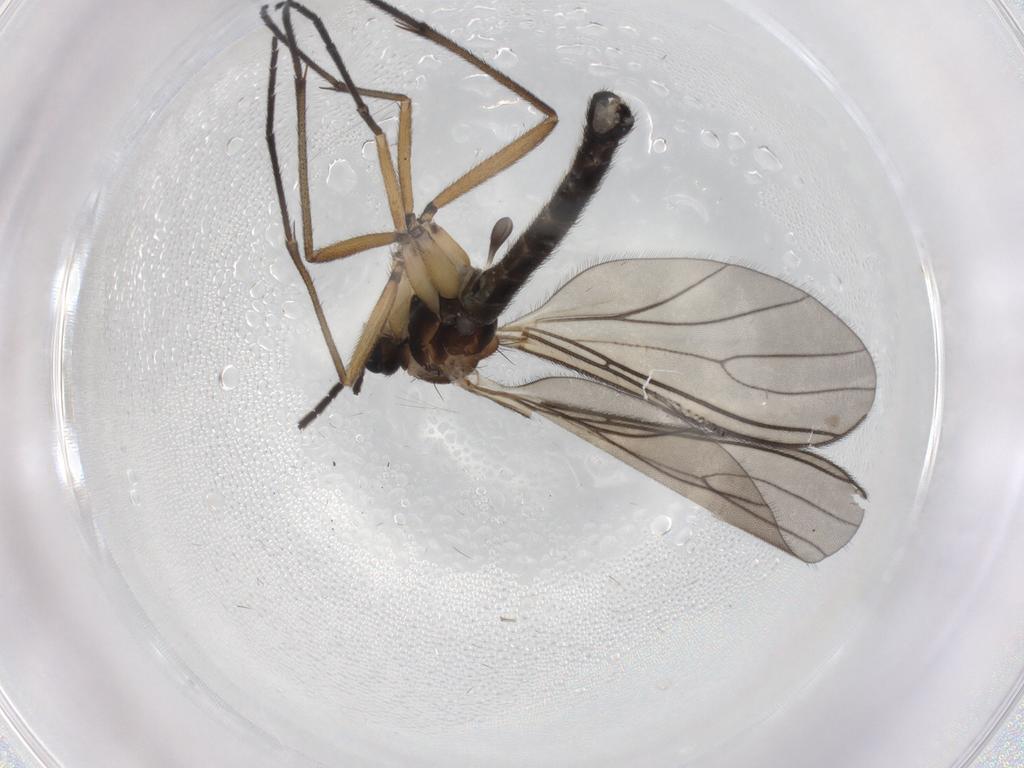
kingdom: Animalia
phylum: Arthropoda
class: Insecta
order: Diptera
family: Sciaridae
